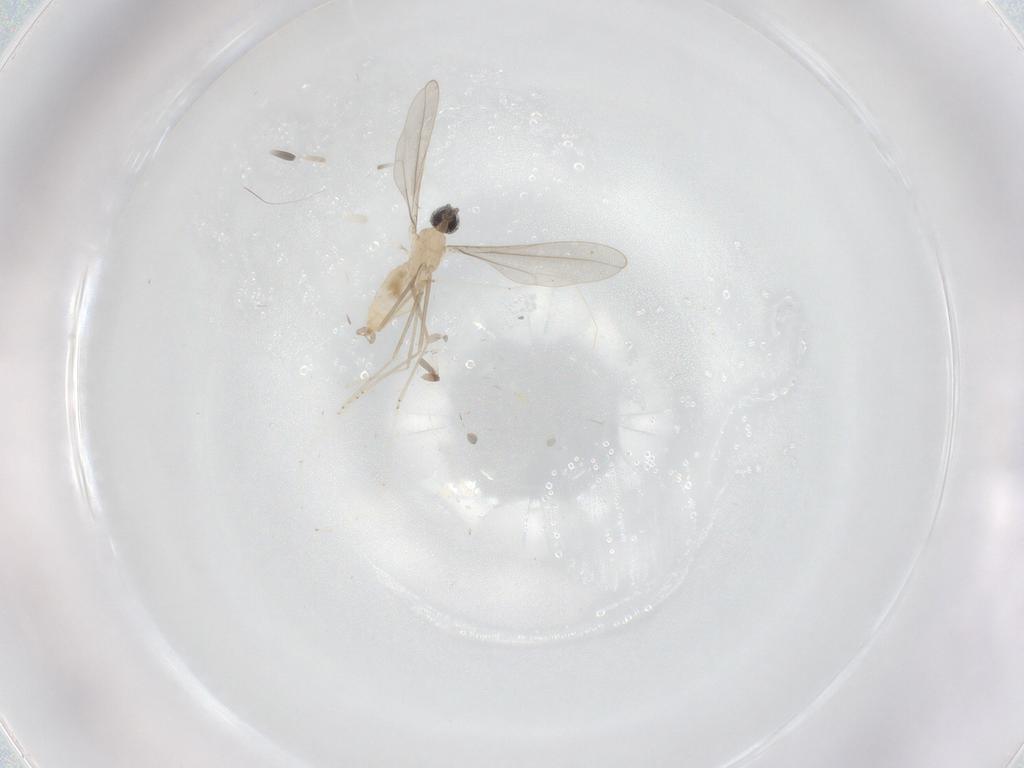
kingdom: Animalia
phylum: Arthropoda
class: Insecta
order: Diptera
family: Cecidomyiidae
